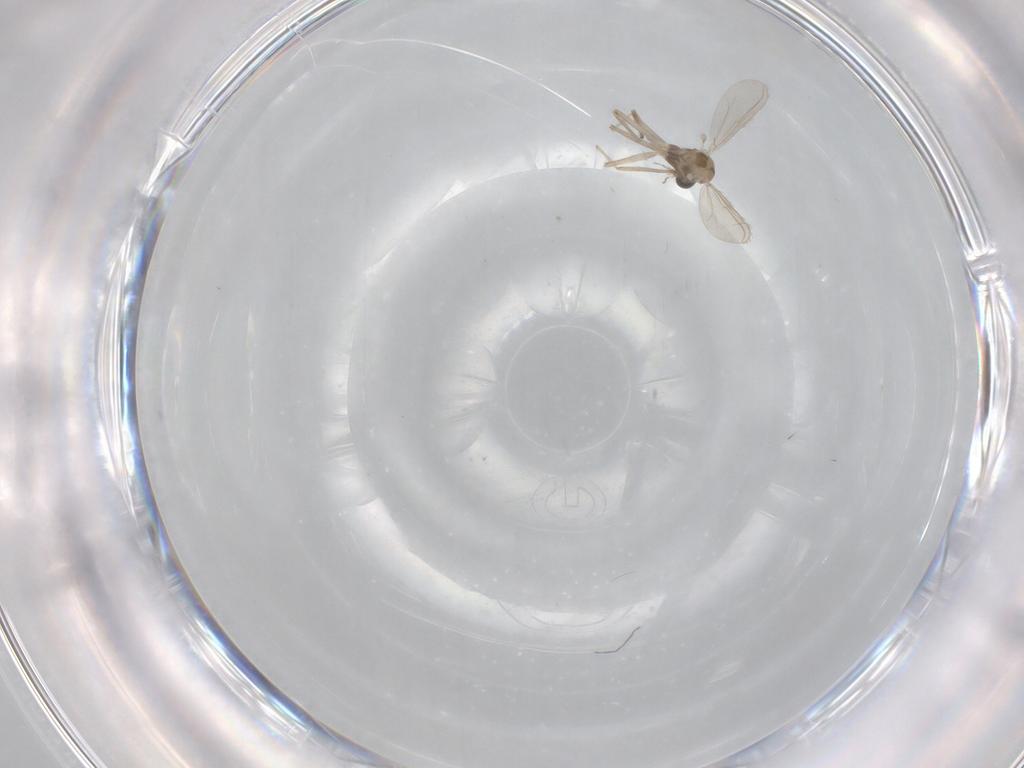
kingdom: Animalia
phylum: Arthropoda
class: Insecta
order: Diptera
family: Chironomidae
